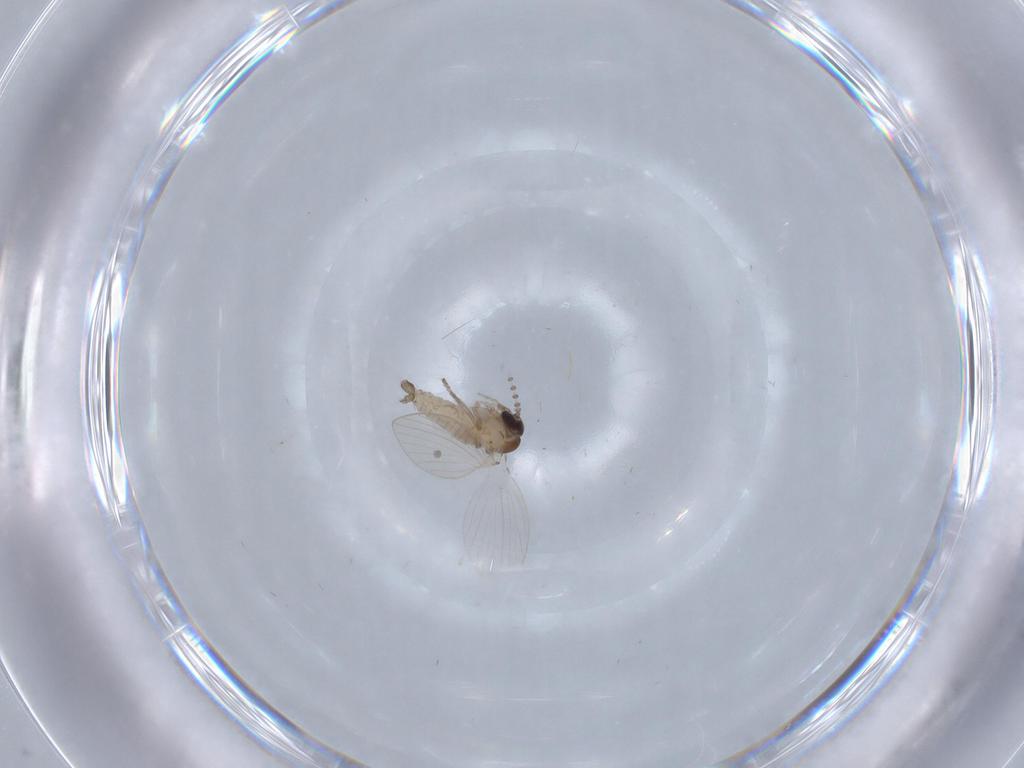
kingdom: Animalia
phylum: Arthropoda
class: Insecta
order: Diptera
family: Psychodidae
